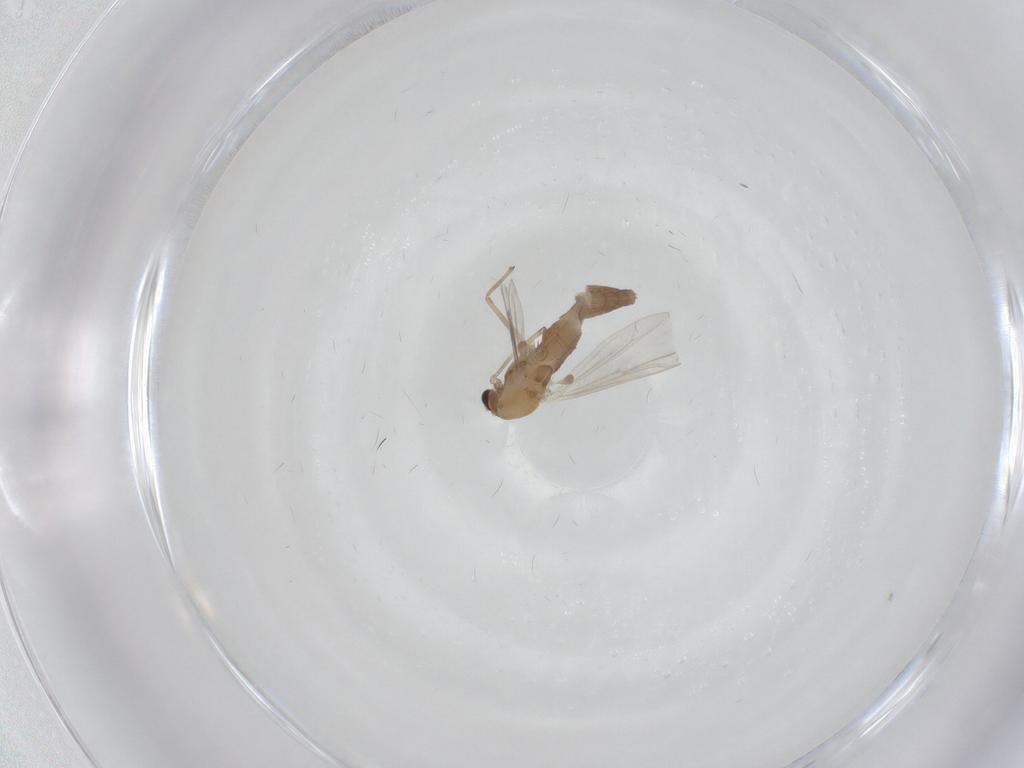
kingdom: Animalia
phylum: Arthropoda
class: Insecta
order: Diptera
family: Chironomidae
